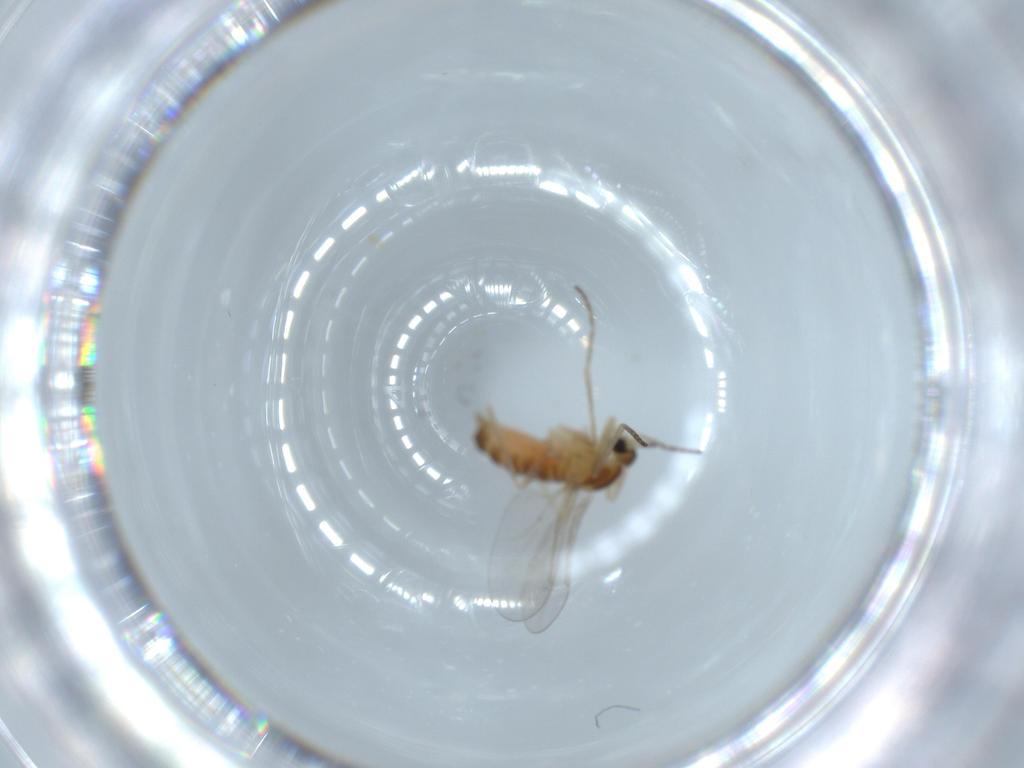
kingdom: Animalia
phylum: Arthropoda
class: Insecta
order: Diptera
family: Cecidomyiidae
